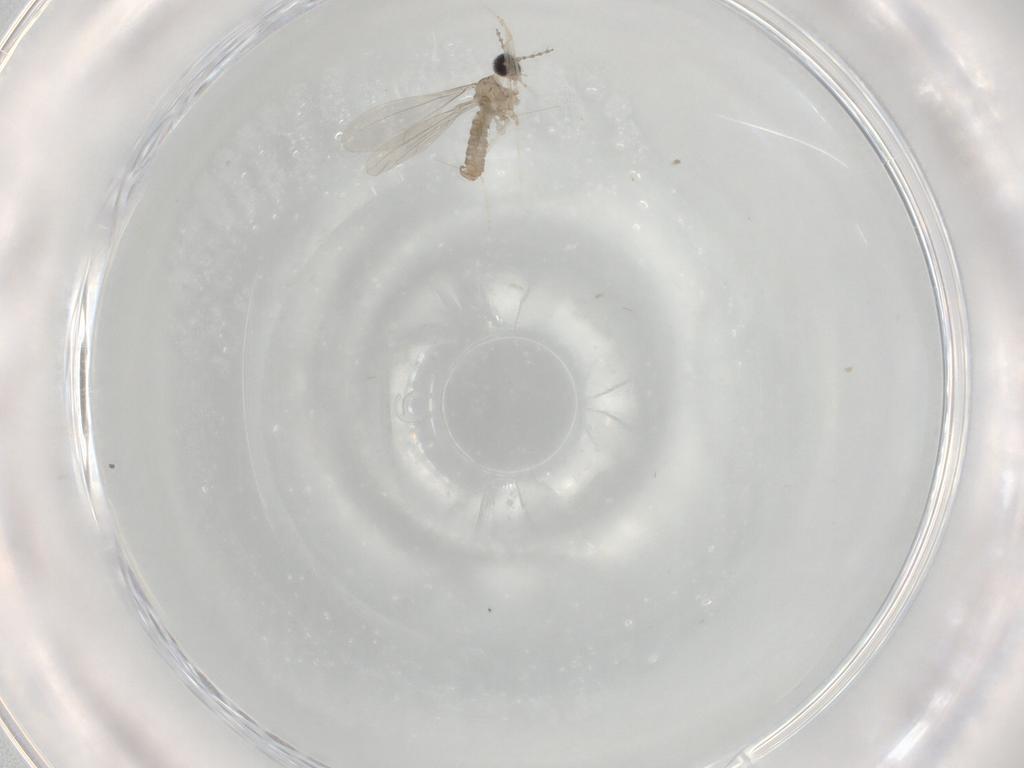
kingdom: Animalia
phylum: Arthropoda
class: Insecta
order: Diptera
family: Cecidomyiidae
